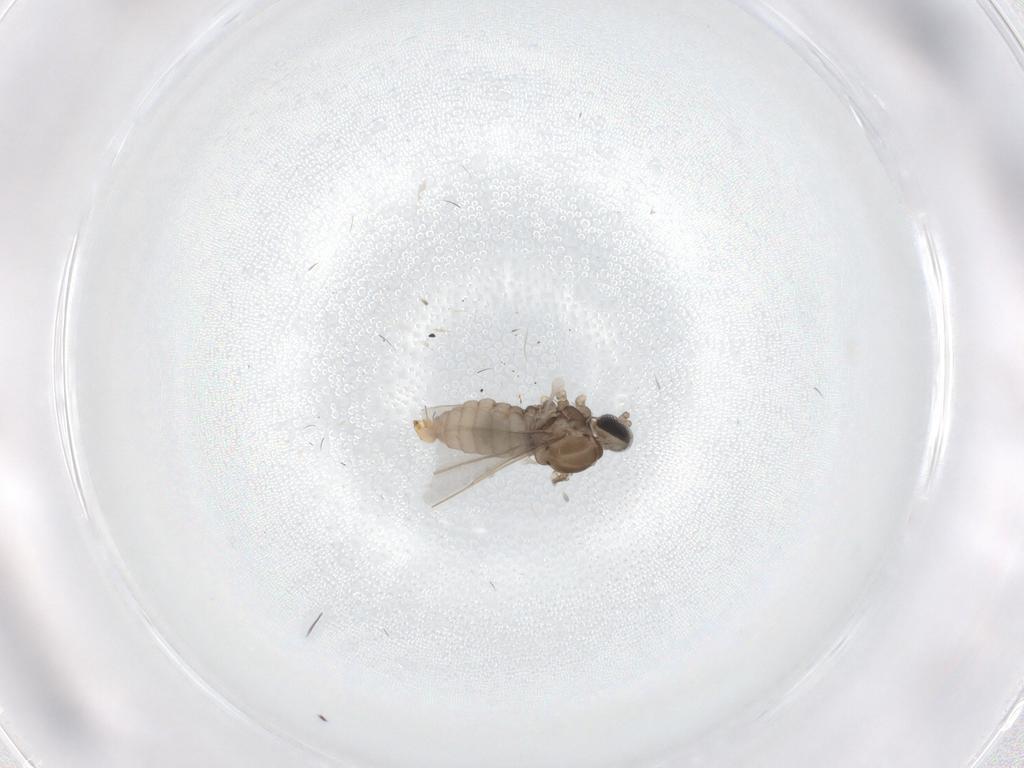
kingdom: Animalia
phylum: Arthropoda
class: Insecta
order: Diptera
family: Cecidomyiidae
